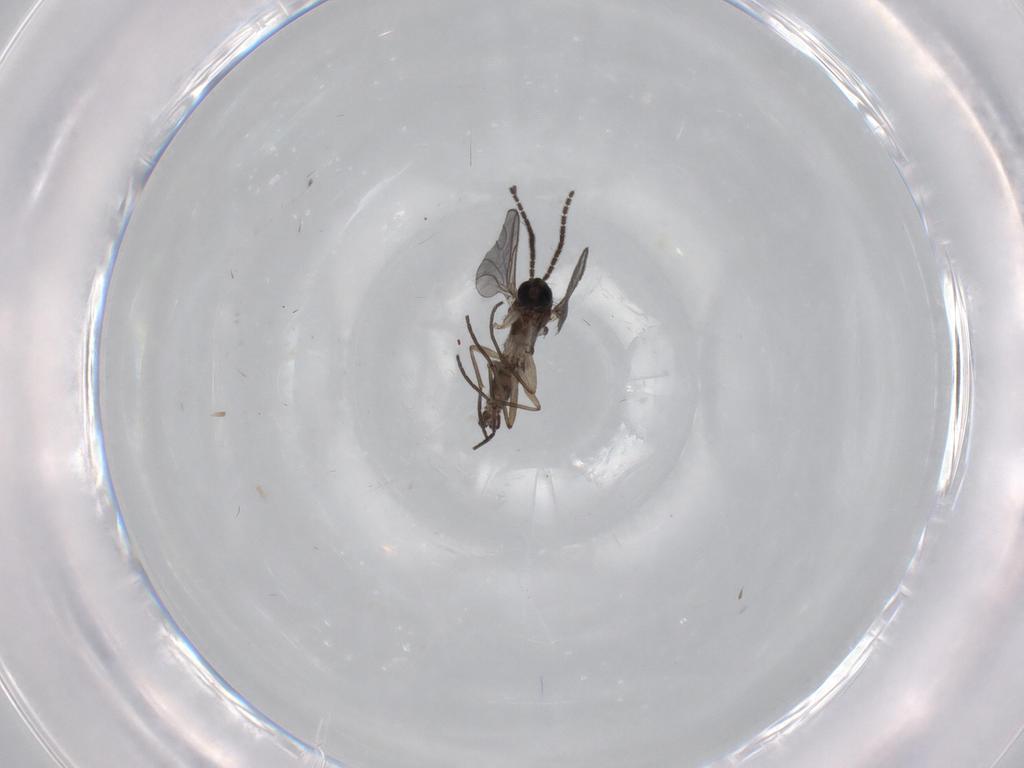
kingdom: Animalia
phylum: Arthropoda
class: Insecta
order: Diptera
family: Sciaridae
